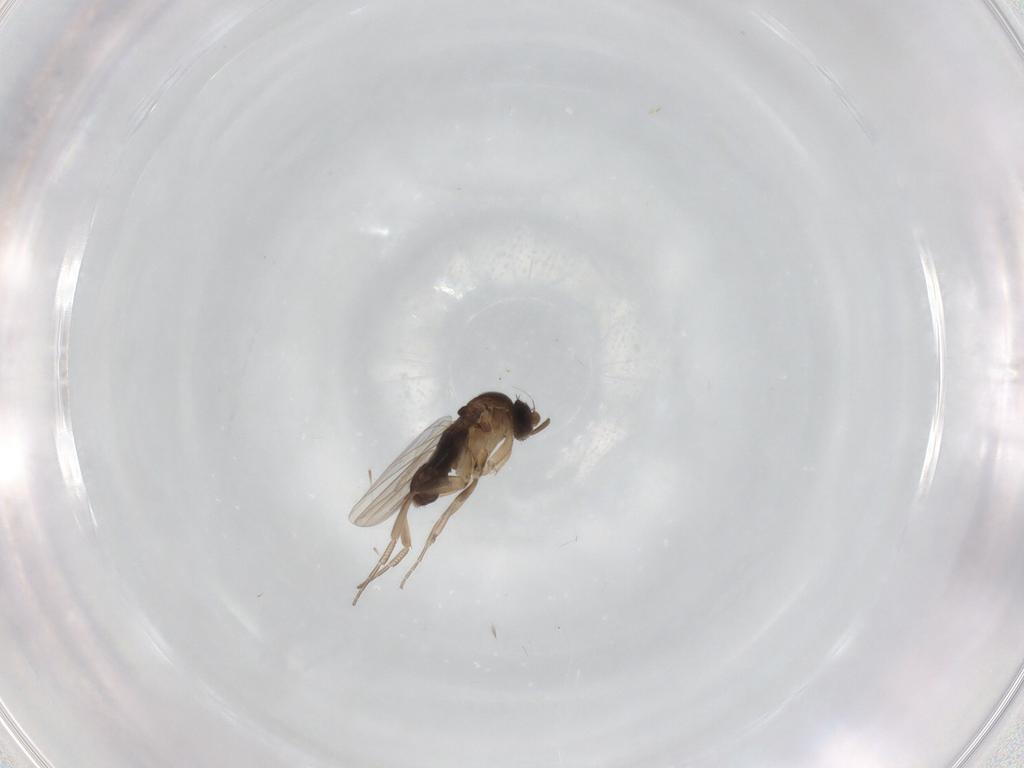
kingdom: Animalia
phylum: Arthropoda
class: Insecta
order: Diptera
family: Phoridae
